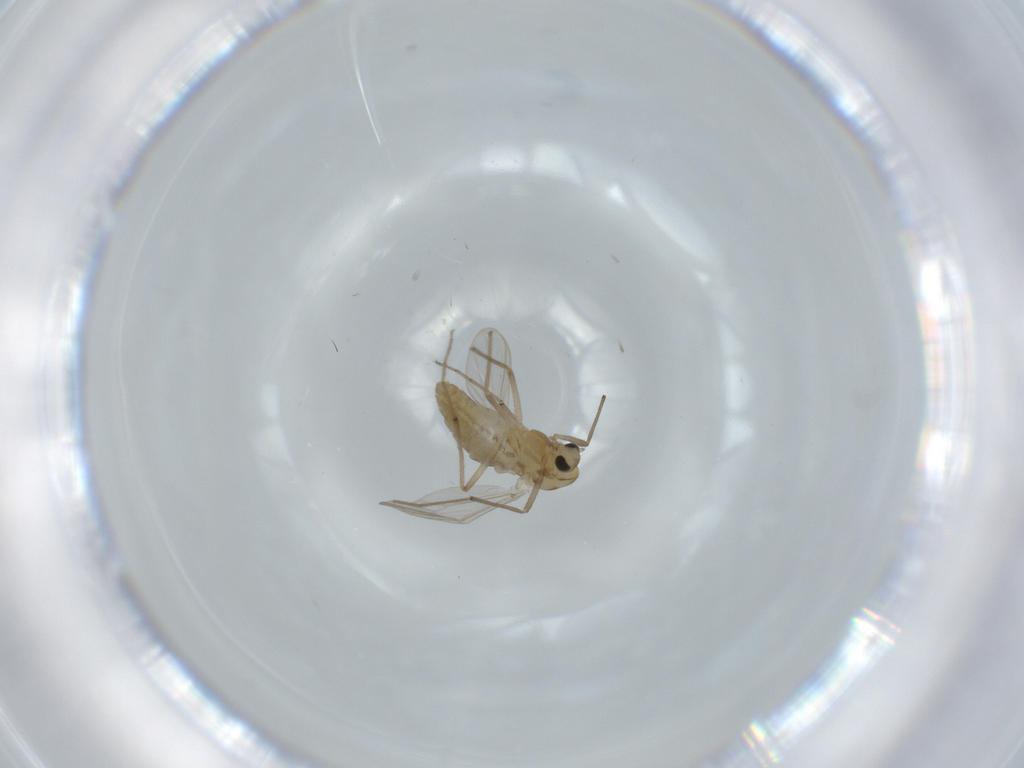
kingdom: Animalia
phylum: Arthropoda
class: Insecta
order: Diptera
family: Chironomidae
